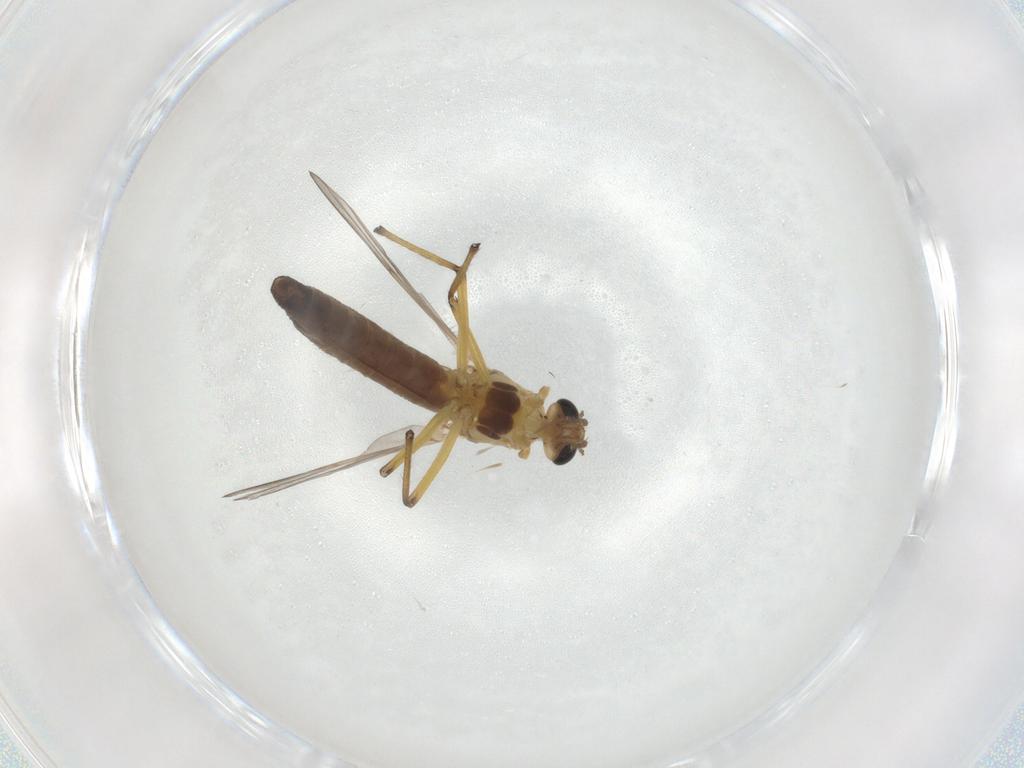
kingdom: Animalia
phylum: Arthropoda
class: Insecta
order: Diptera
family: Chironomidae
